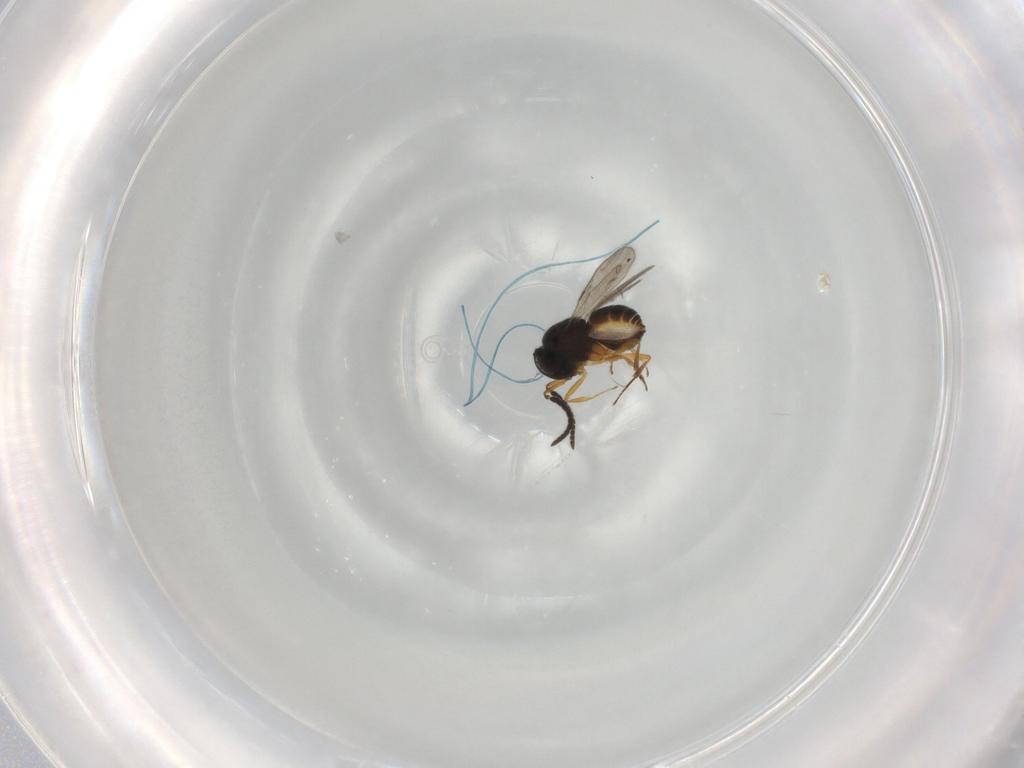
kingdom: Animalia
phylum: Arthropoda
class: Insecta
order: Hymenoptera
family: Scelionidae
